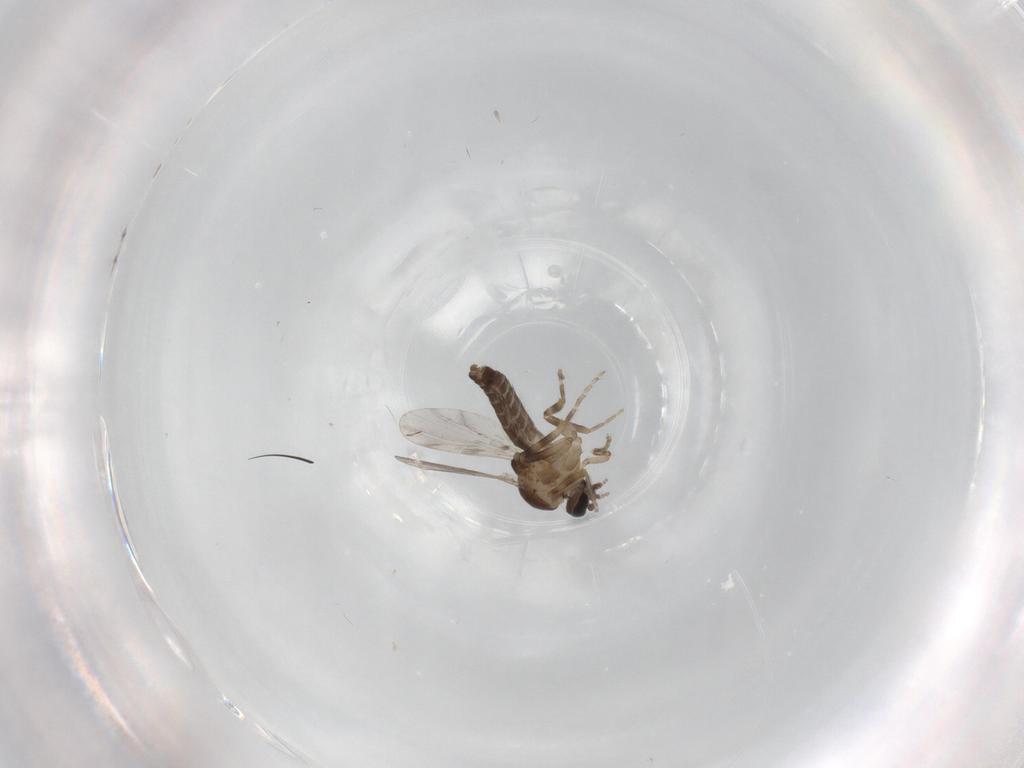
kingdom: Animalia
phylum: Arthropoda
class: Insecta
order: Diptera
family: Ceratopogonidae
